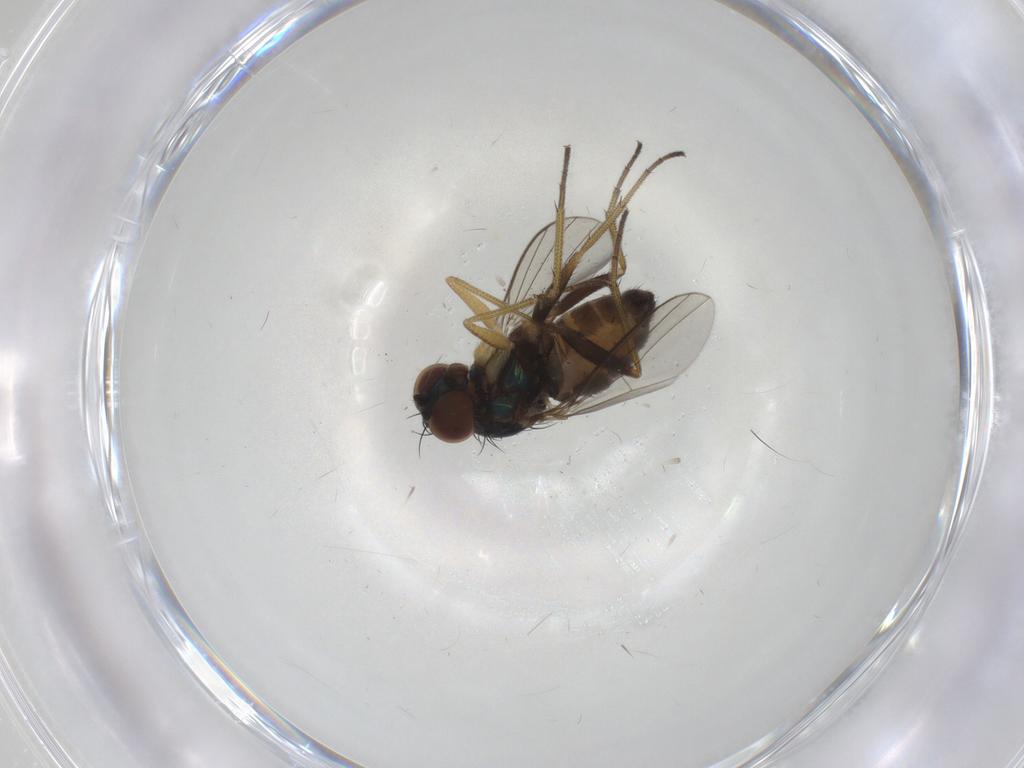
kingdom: Animalia
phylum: Arthropoda
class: Insecta
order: Diptera
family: Dolichopodidae
